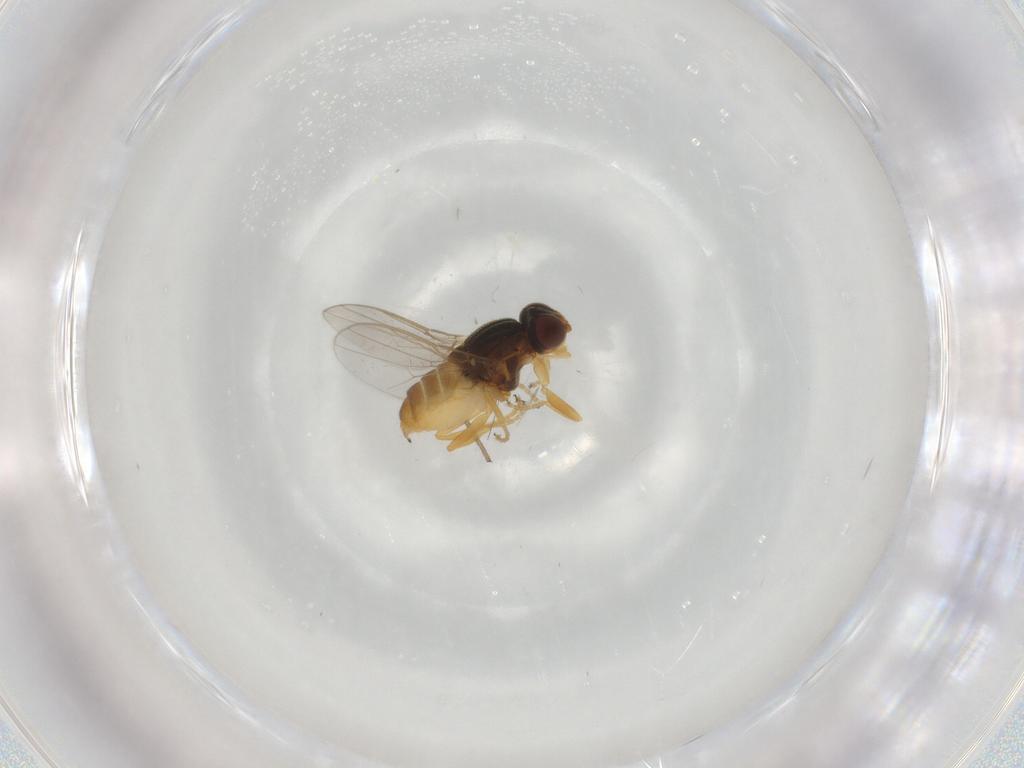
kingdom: Animalia
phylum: Arthropoda
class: Insecta
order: Diptera
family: Chloropidae
